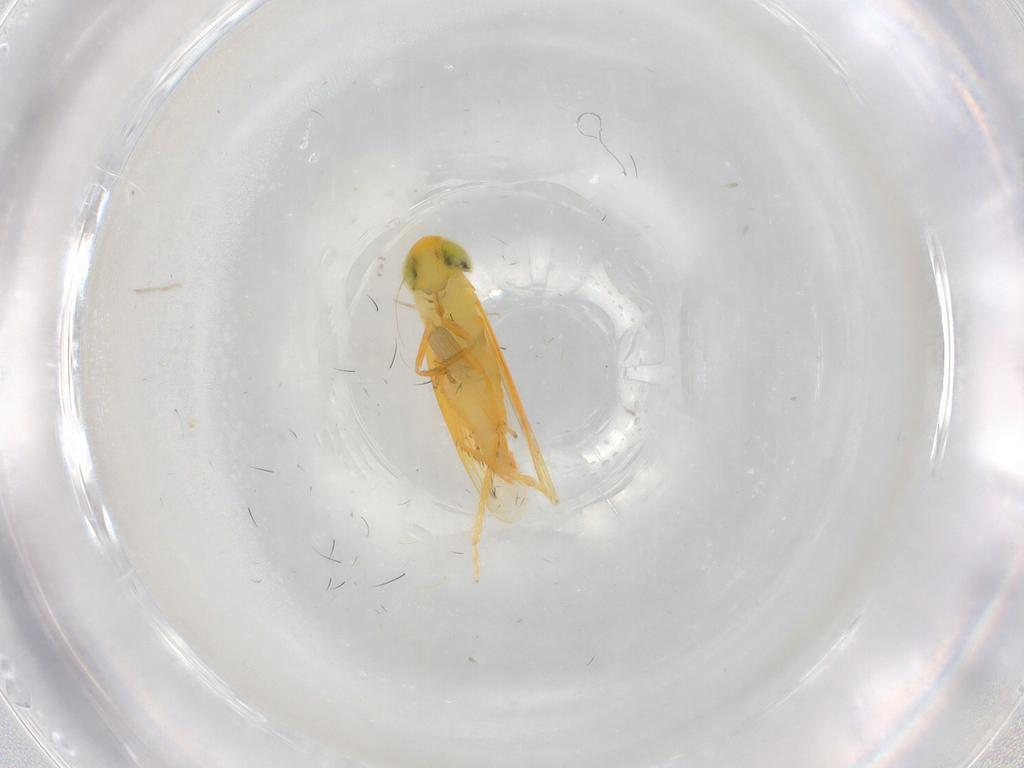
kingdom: Animalia
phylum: Arthropoda
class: Insecta
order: Hemiptera
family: Cicadellidae
